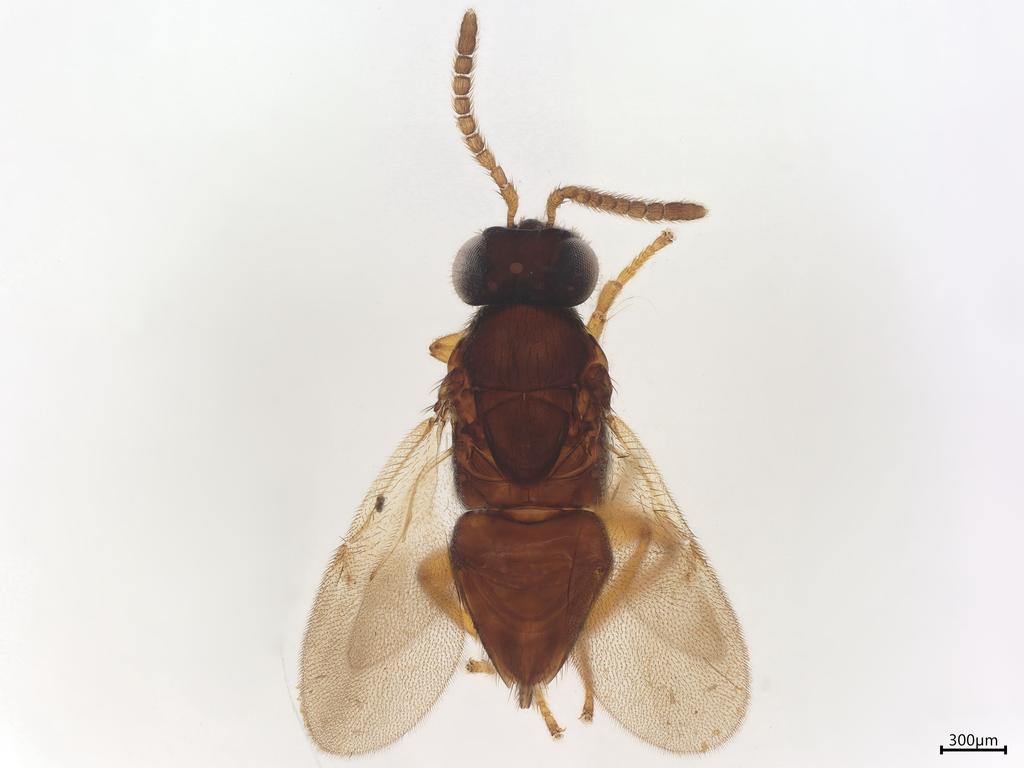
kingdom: Animalia
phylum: Arthropoda
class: Insecta
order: Hymenoptera
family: Encyrtidae
